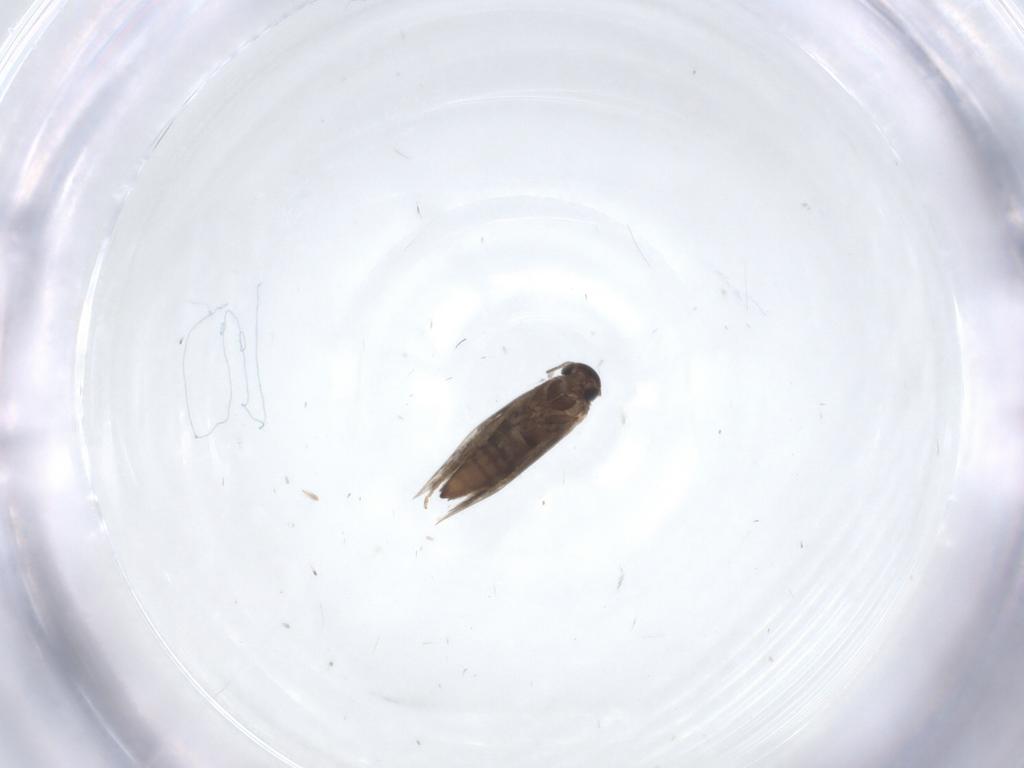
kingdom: Animalia
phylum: Arthropoda
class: Insecta
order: Lepidoptera
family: Heliozelidae
